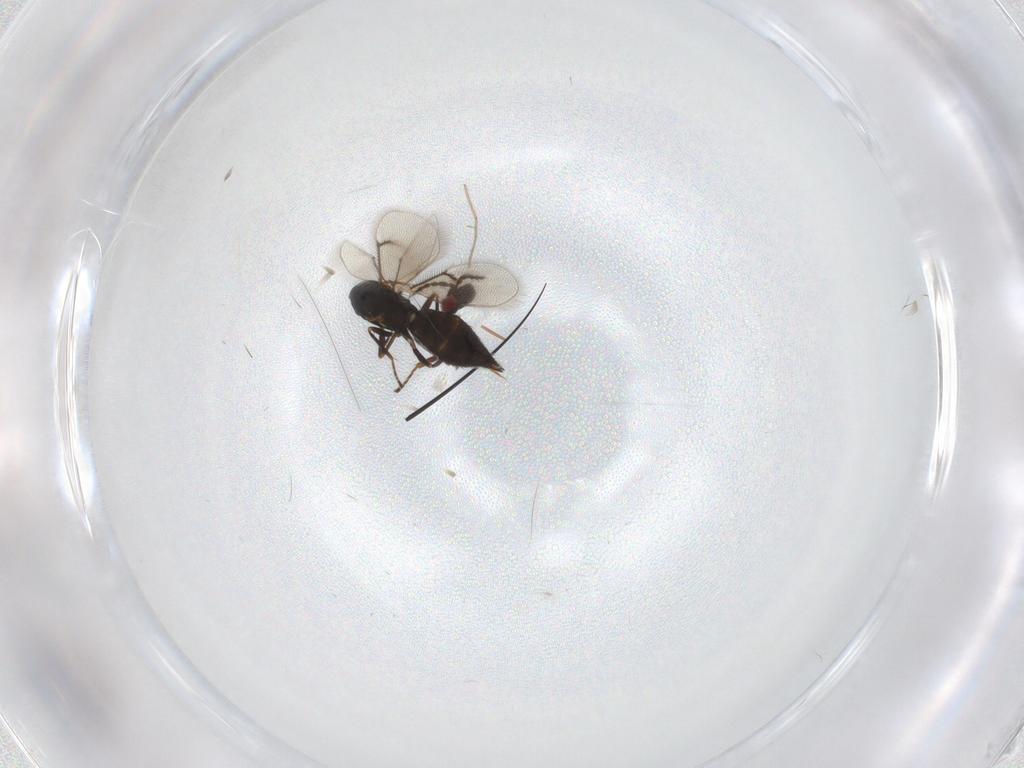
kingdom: Animalia
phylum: Arthropoda
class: Insecta
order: Hymenoptera
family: Eulophidae
